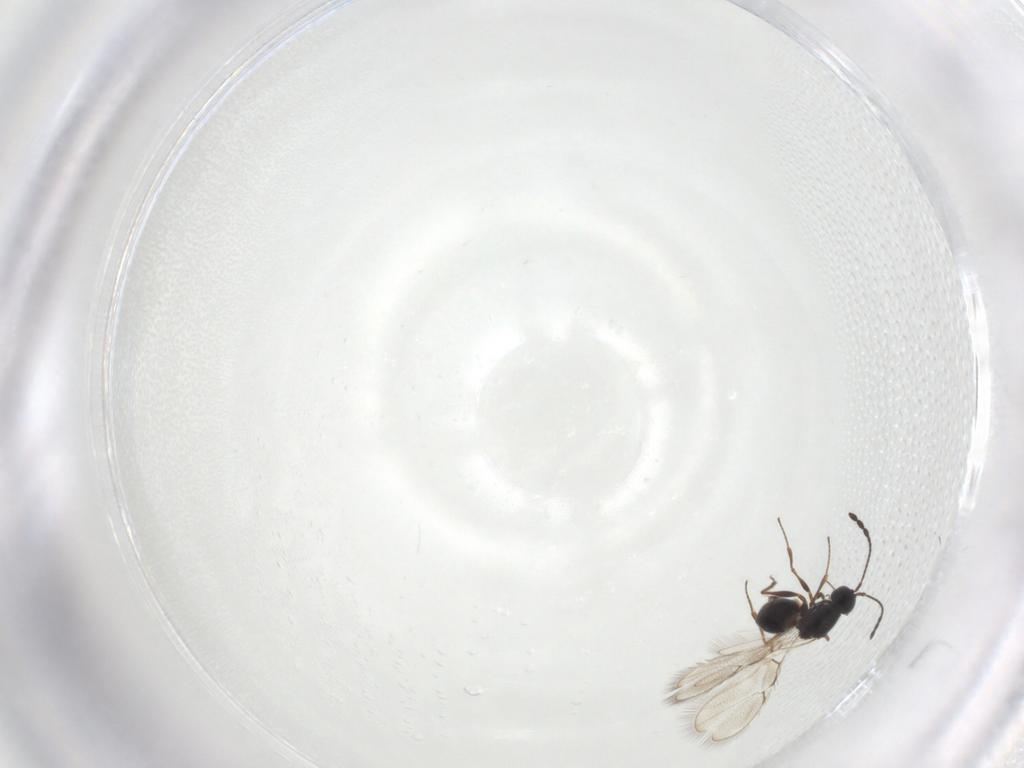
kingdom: Animalia
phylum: Arthropoda
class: Insecta
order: Hymenoptera
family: Figitidae
